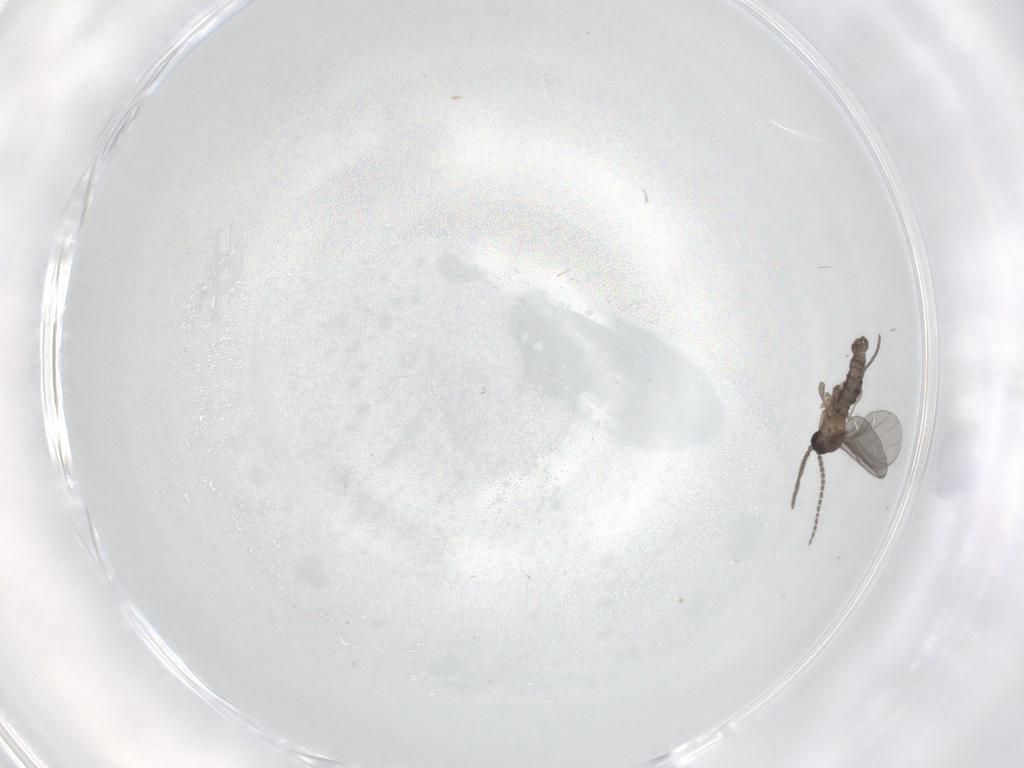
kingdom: Animalia
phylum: Arthropoda
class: Insecta
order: Diptera
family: Sciaridae
